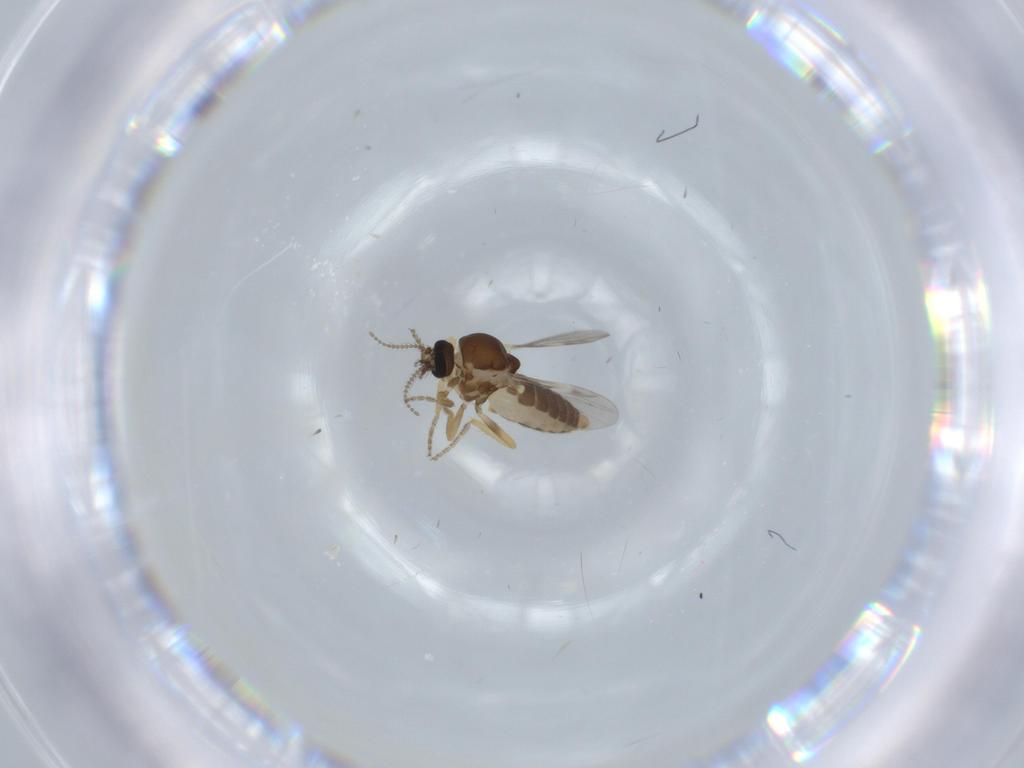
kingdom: Animalia
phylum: Arthropoda
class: Insecta
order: Diptera
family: Ceratopogonidae
